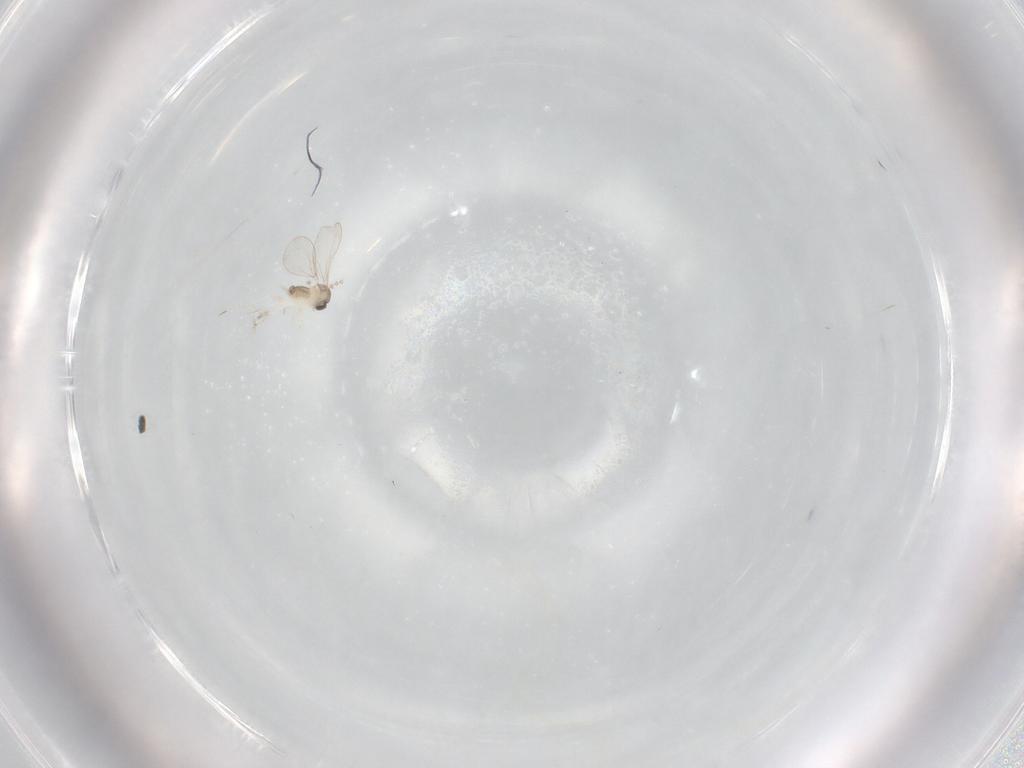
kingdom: Animalia
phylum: Arthropoda
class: Insecta
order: Diptera
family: Cecidomyiidae
